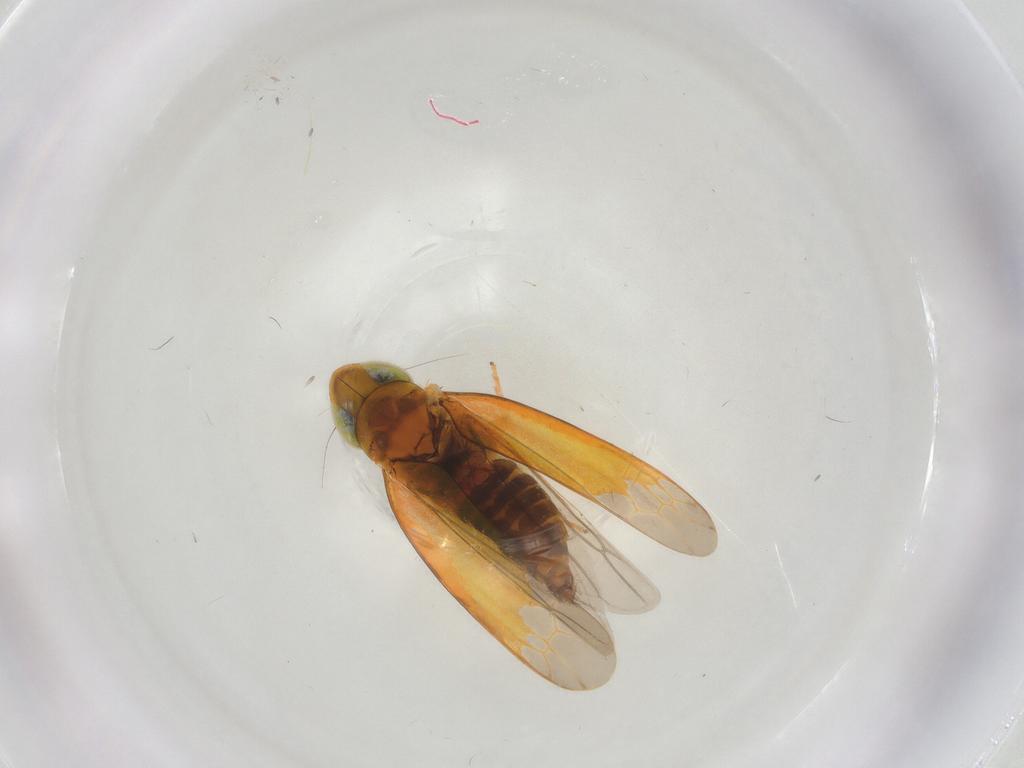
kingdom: Animalia
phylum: Arthropoda
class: Insecta
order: Hemiptera
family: Cicadellidae
